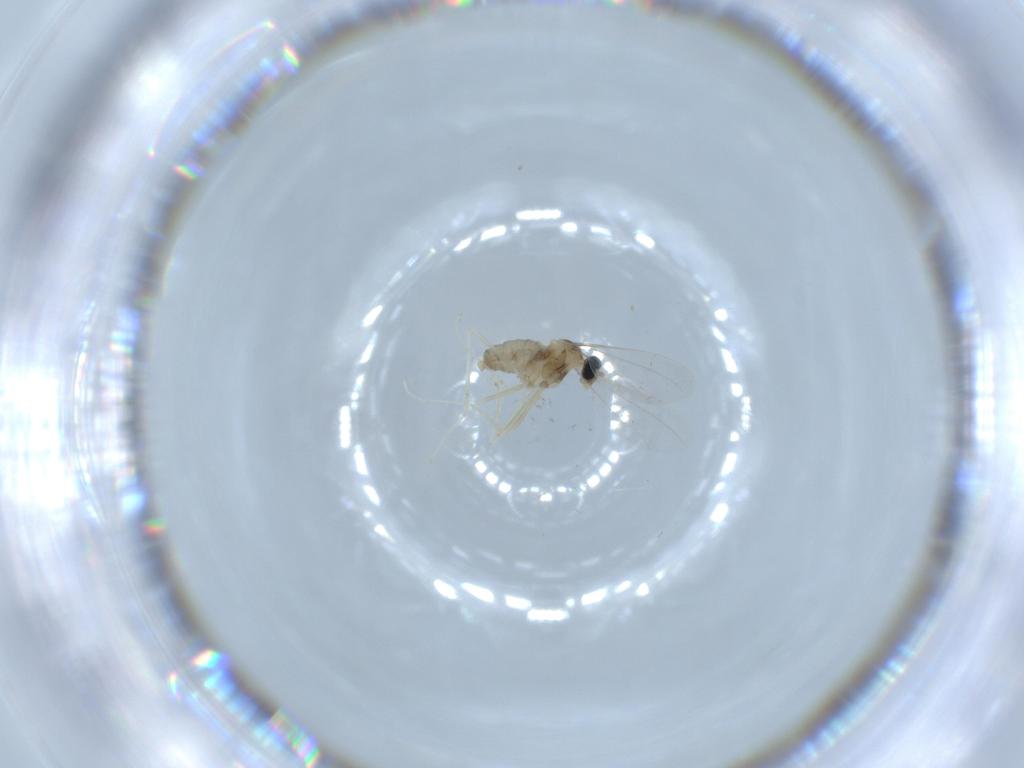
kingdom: Animalia
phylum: Arthropoda
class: Insecta
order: Diptera
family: Cecidomyiidae
